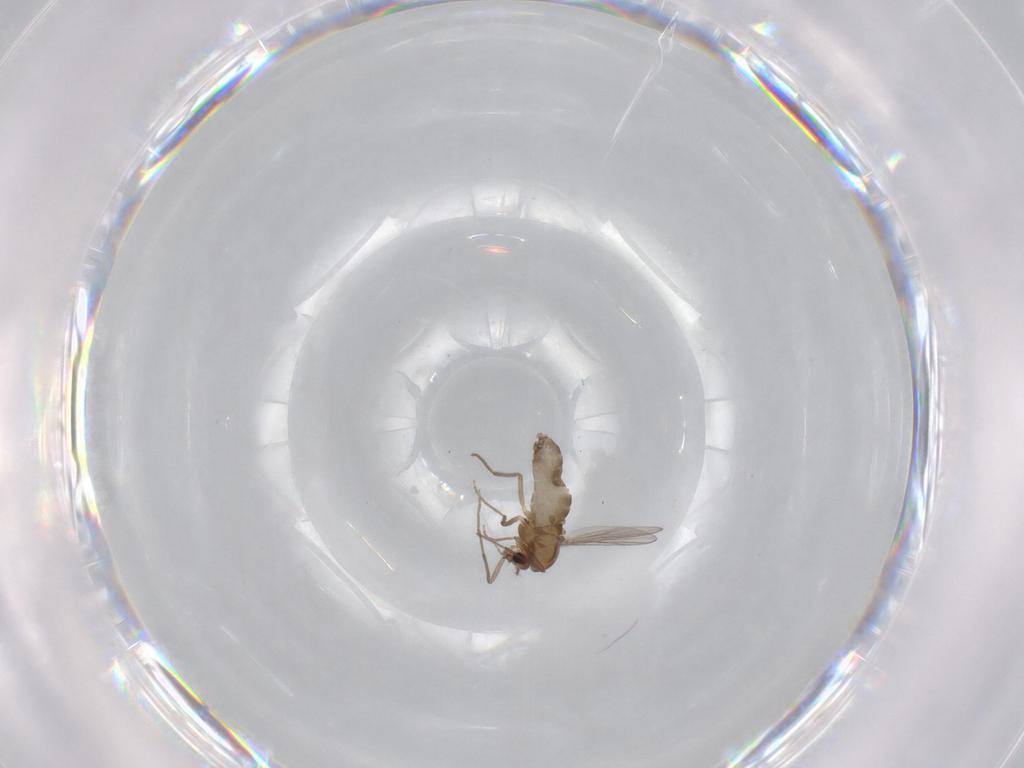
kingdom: Animalia
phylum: Arthropoda
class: Insecta
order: Diptera
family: Chironomidae
